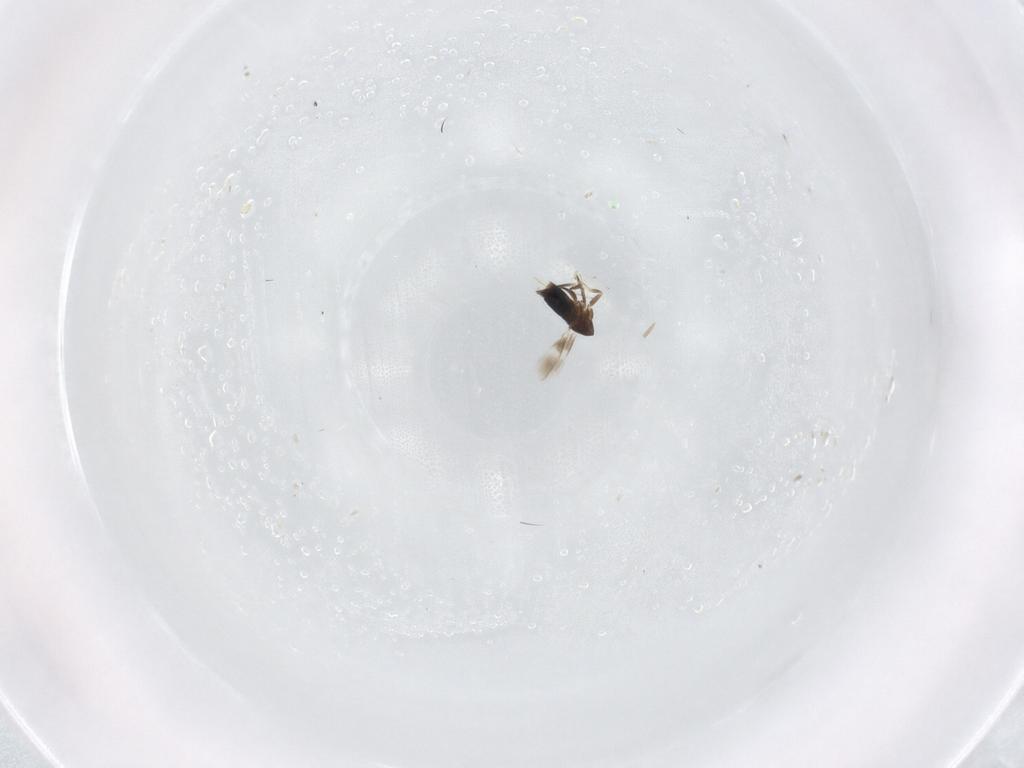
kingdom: Animalia
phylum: Arthropoda
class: Insecta
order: Hymenoptera
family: Signiphoridae
